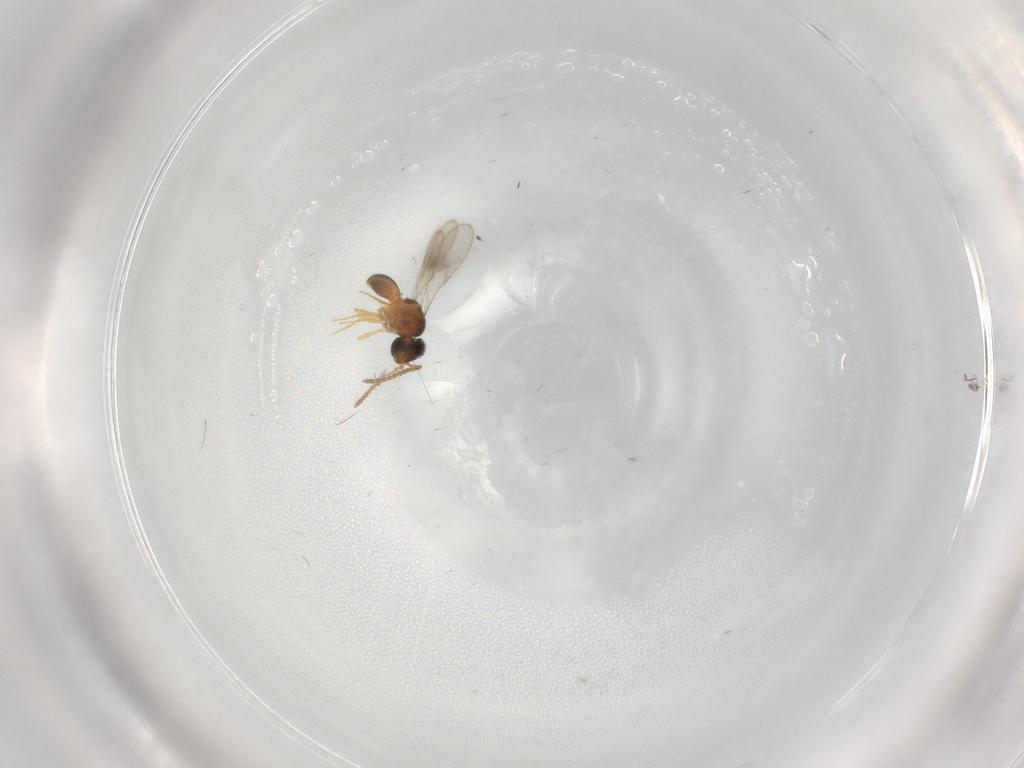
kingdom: Animalia
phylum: Arthropoda
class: Insecta
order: Hymenoptera
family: Scelionidae
